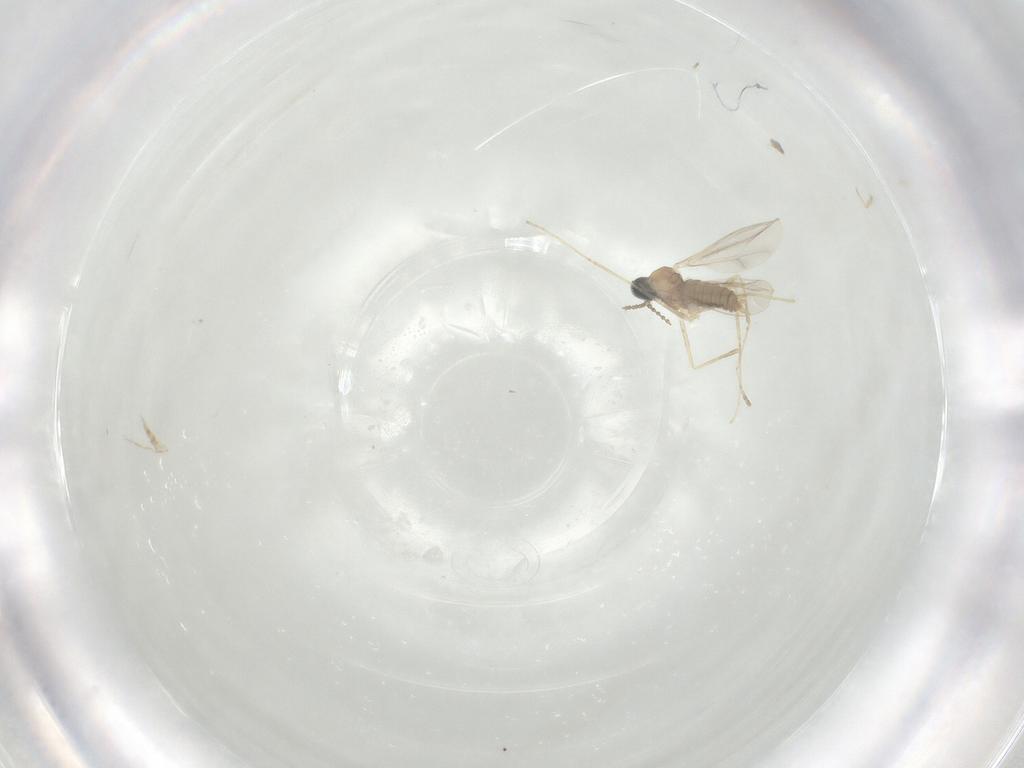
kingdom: Animalia
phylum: Arthropoda
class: Insecta
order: Diptera
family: Cecidomyiidae
